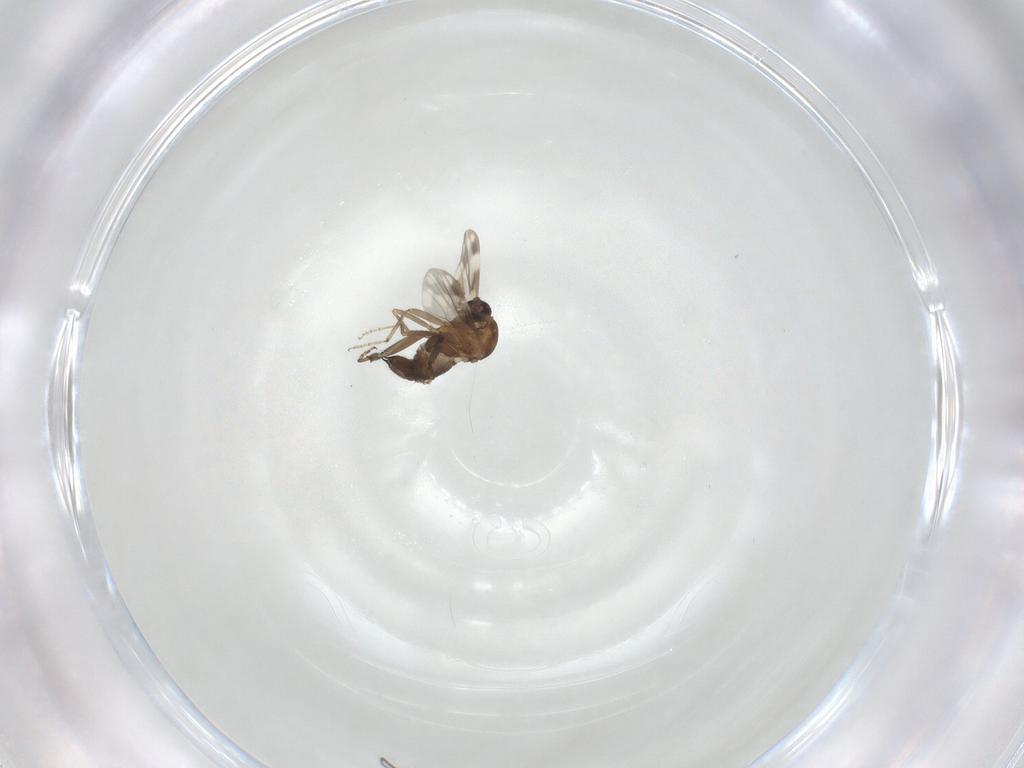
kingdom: Animalia
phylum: Arthropoda
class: Insecta
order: Diptera
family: Ceratopogonidae
